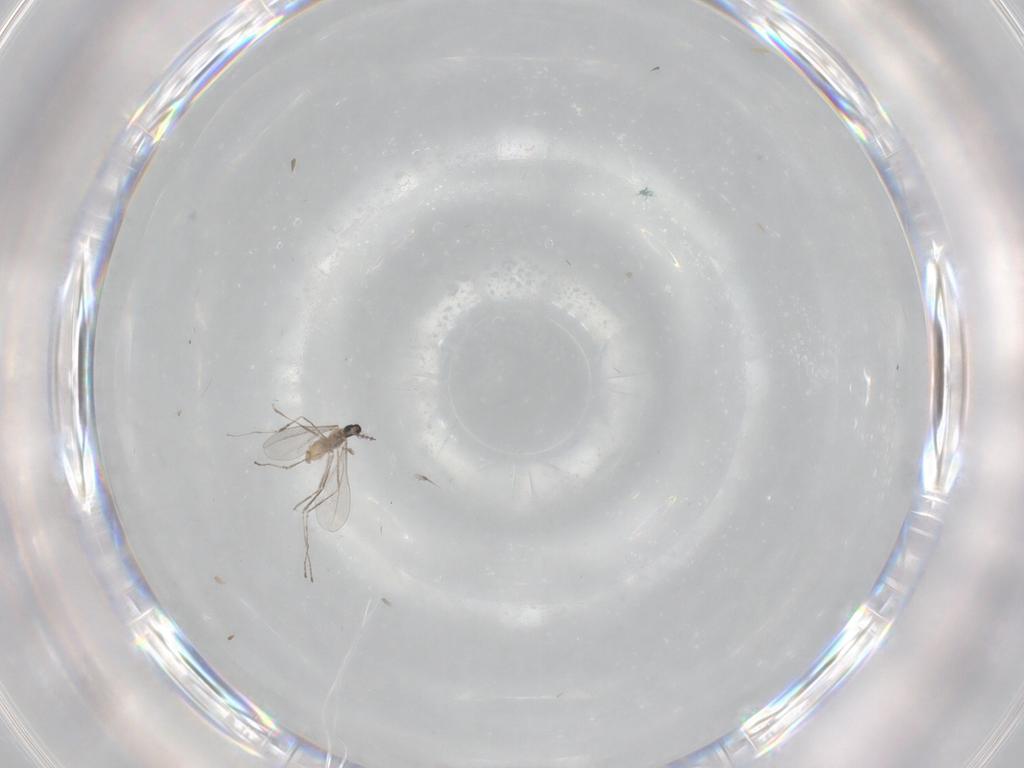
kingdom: Animalia
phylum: Arthropoda
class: Insecta
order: Diptera
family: Cecidomyiidae
